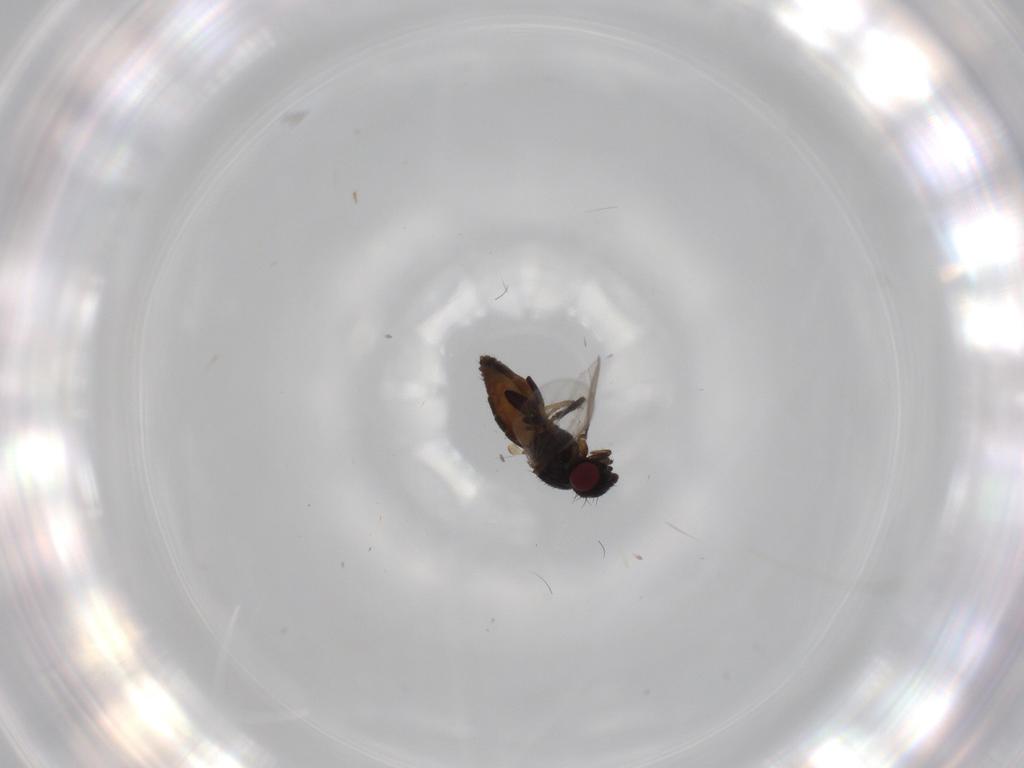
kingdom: Animalia
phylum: Arthropoda
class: Insecta
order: Diptera
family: Milichiidae
